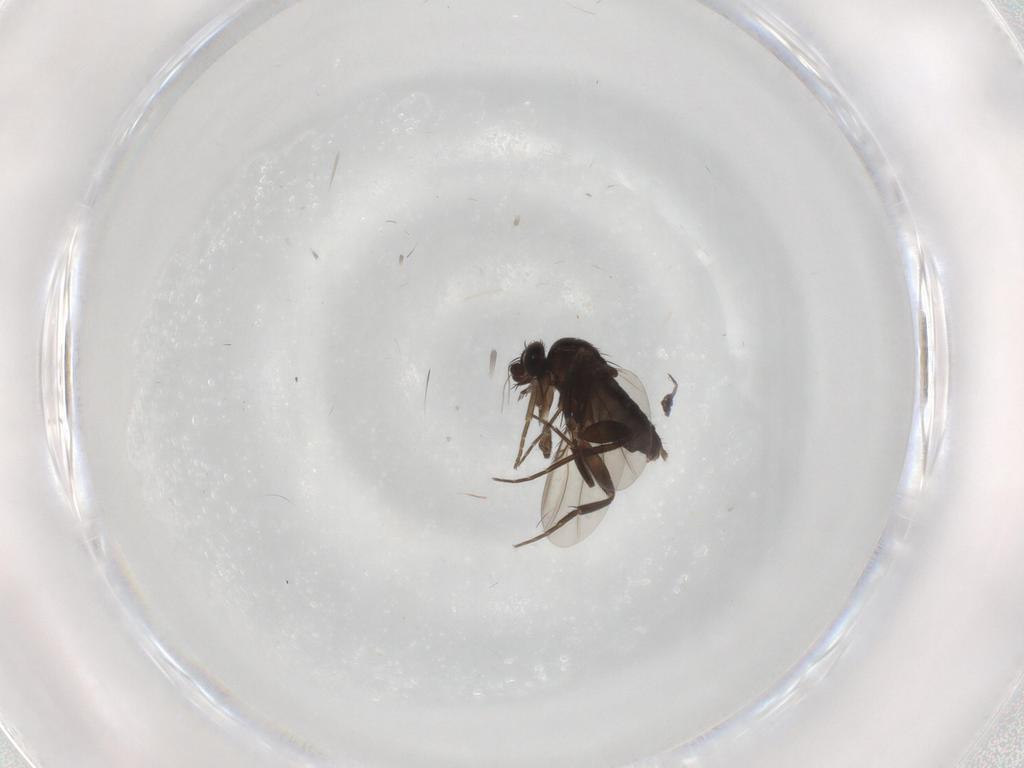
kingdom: Animalia
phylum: Arthropoda
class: Insecta
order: Diptera
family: Phoridae
